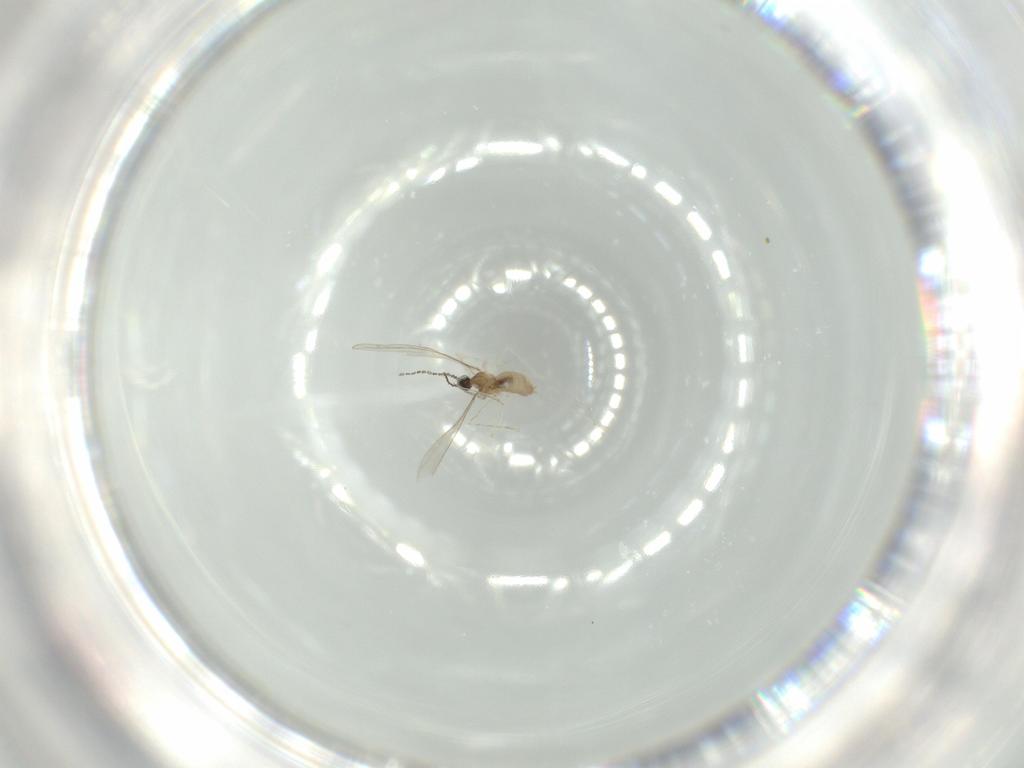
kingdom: Animalia
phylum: Arthropoda
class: Insecta
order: Diptera
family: Cecidomyiidae
